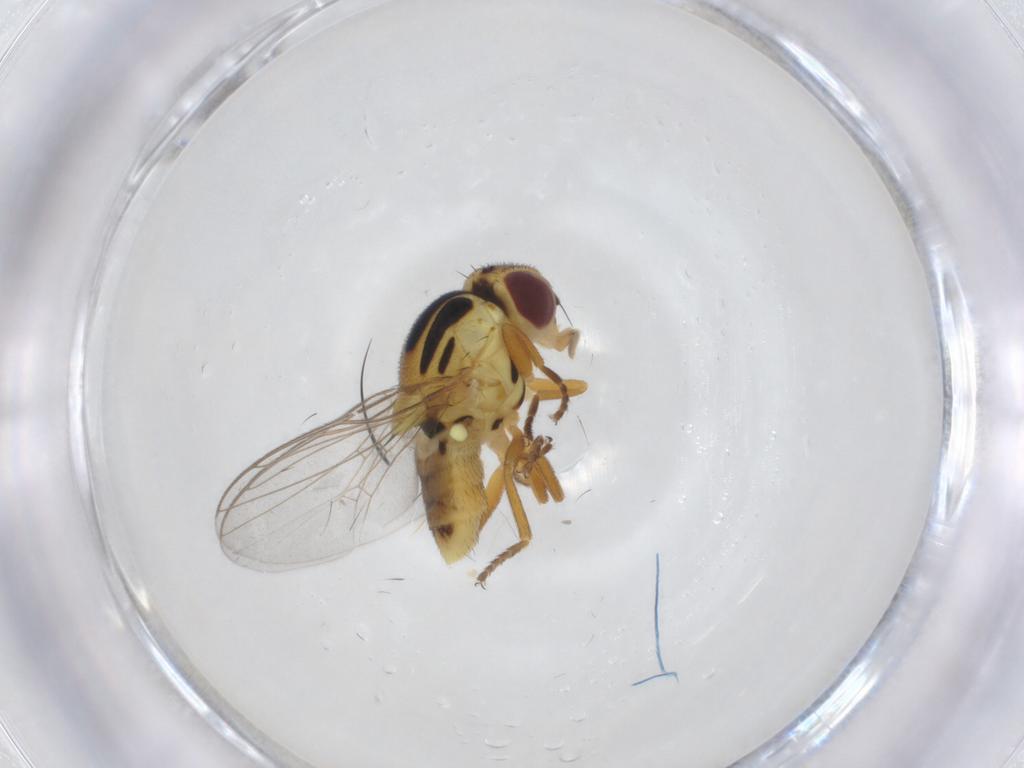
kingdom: Animalia
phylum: Arthropoda
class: Insecta
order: Diptera
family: Chloropidae
